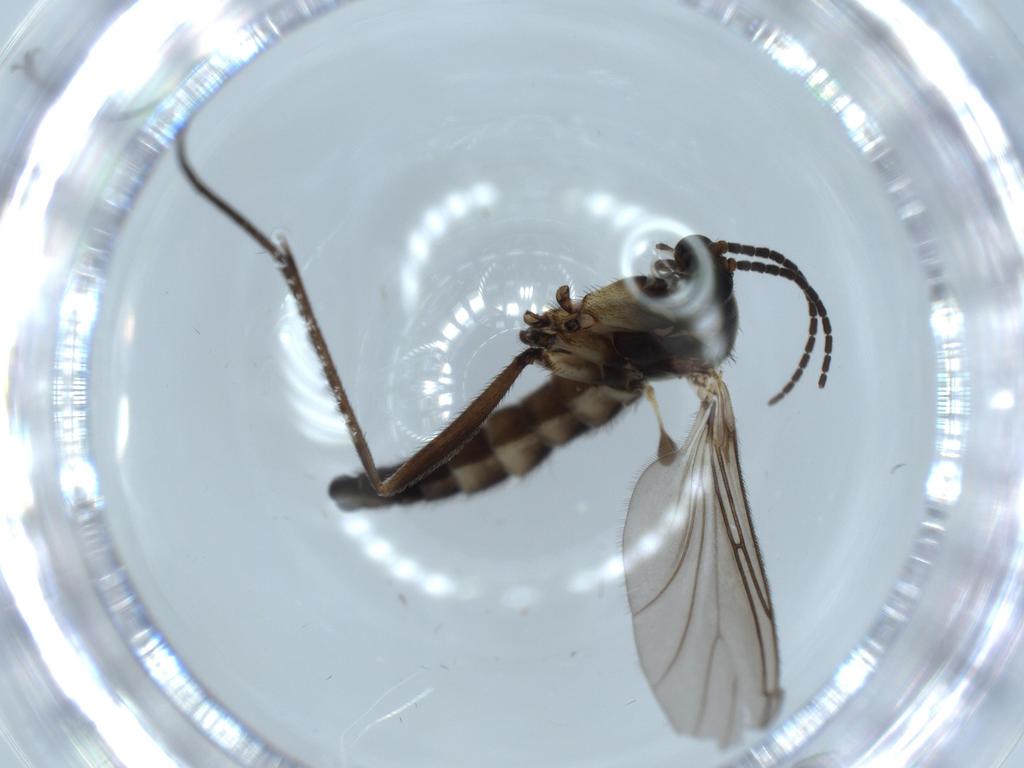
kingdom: Animalia
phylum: Arthropoda
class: Insecta
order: Diptera
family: Sciaridae
